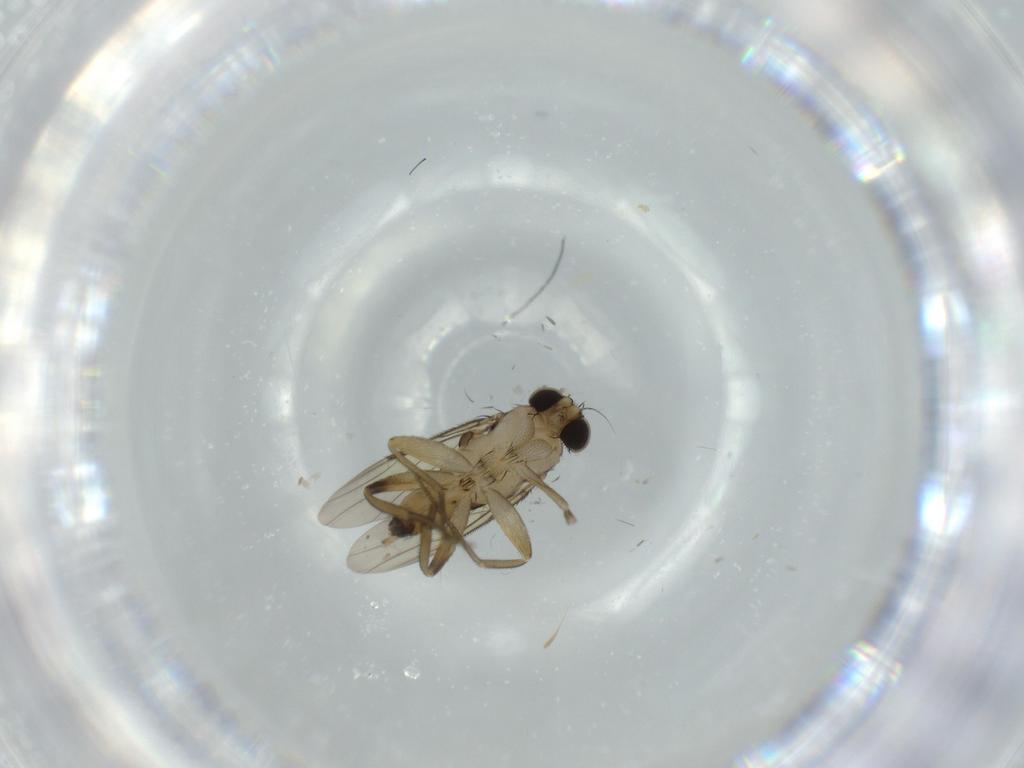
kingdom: Animalia
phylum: Arthropoda
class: Insecta
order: Diptera
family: Phoridae
